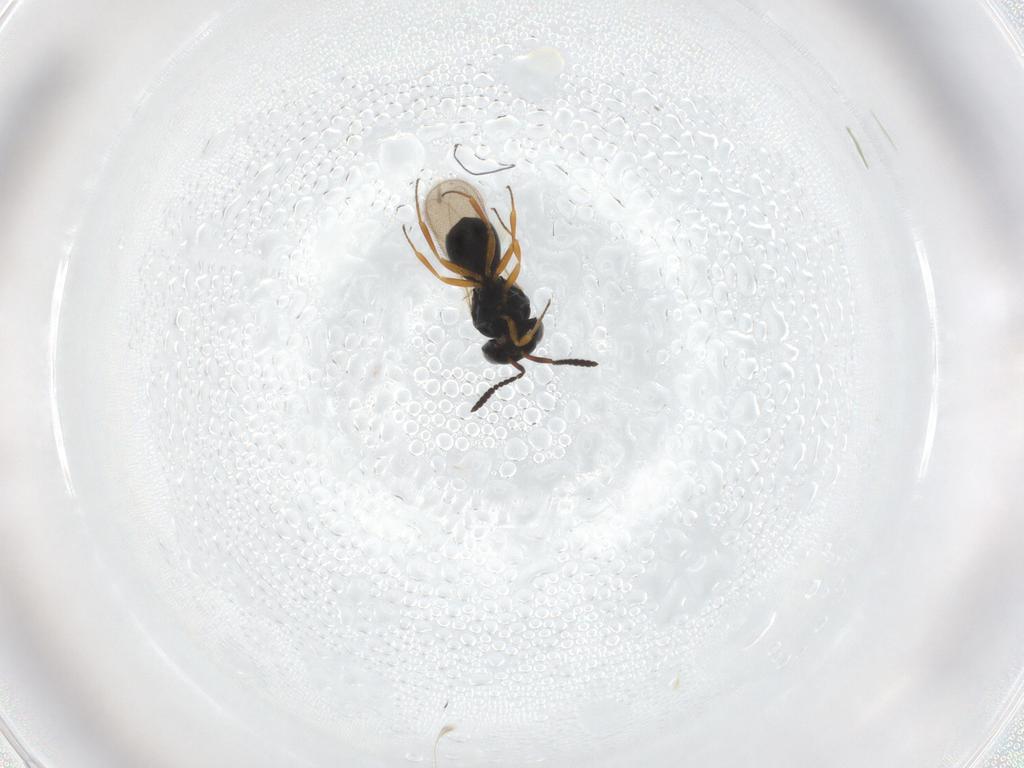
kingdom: Animalia
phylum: Arthropoda
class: Insecta
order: Hymenoptera
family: Scelionidae
